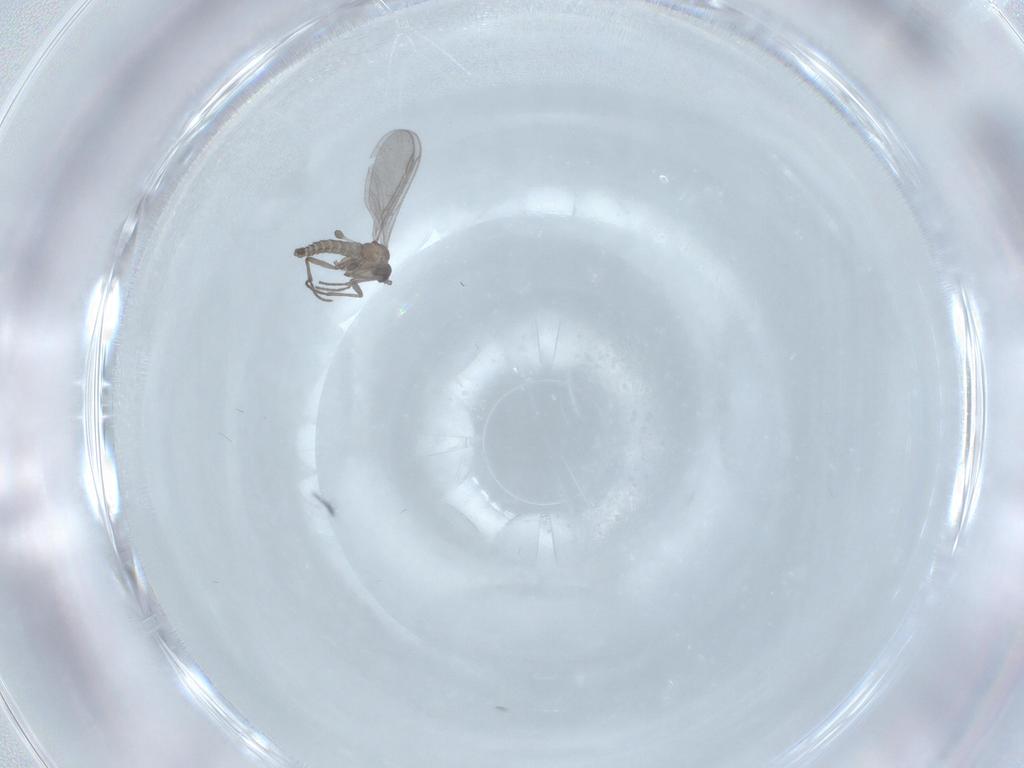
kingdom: Animalia
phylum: Arthropoda
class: Insecta
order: Diptera
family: Sciaridae
